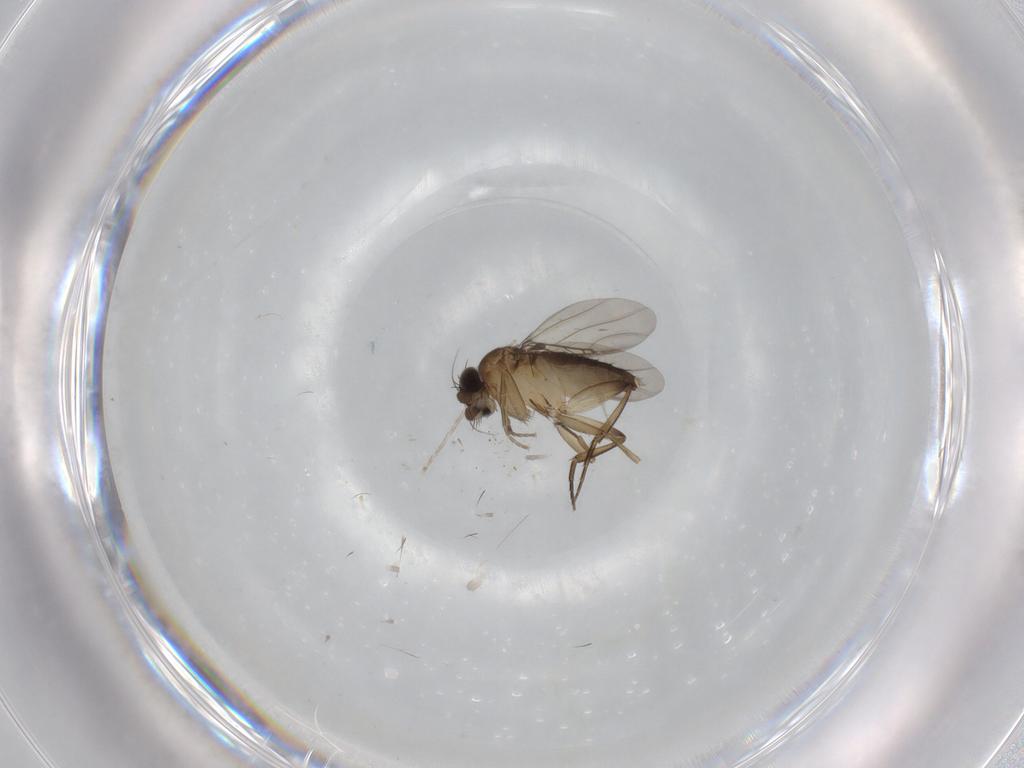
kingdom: Animalia
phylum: Arthropoda
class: Insecta
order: Diptera
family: Phoridae
